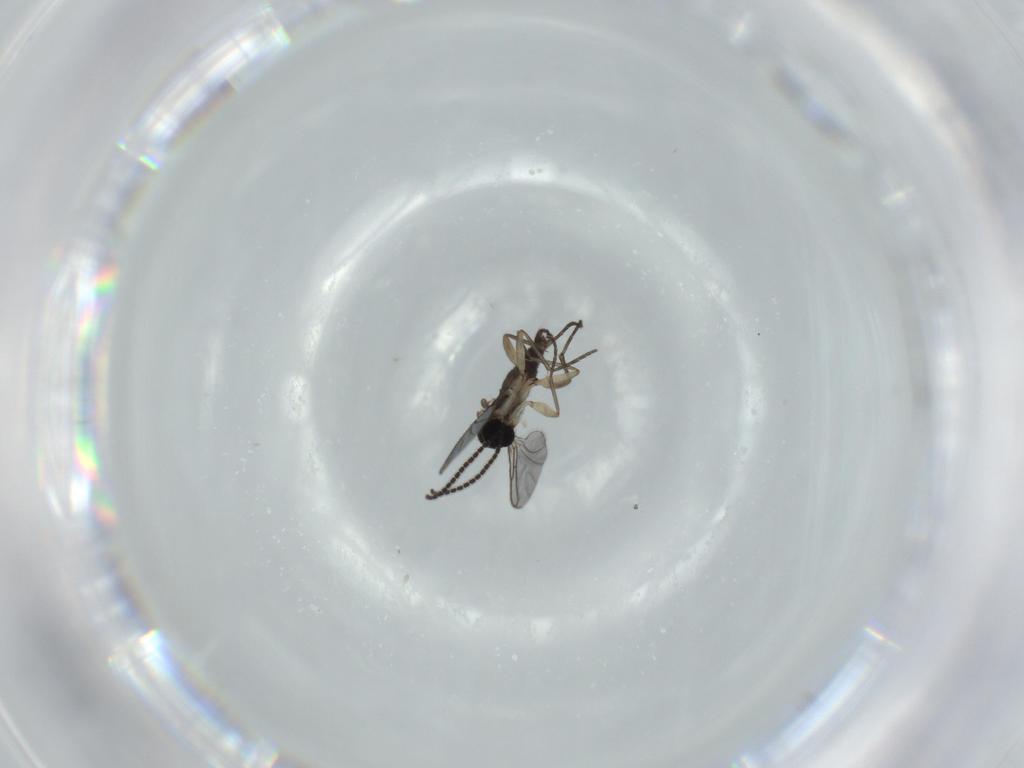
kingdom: Animalia
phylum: Arthropoda
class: Insecta
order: Diptera
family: Sciaridae
